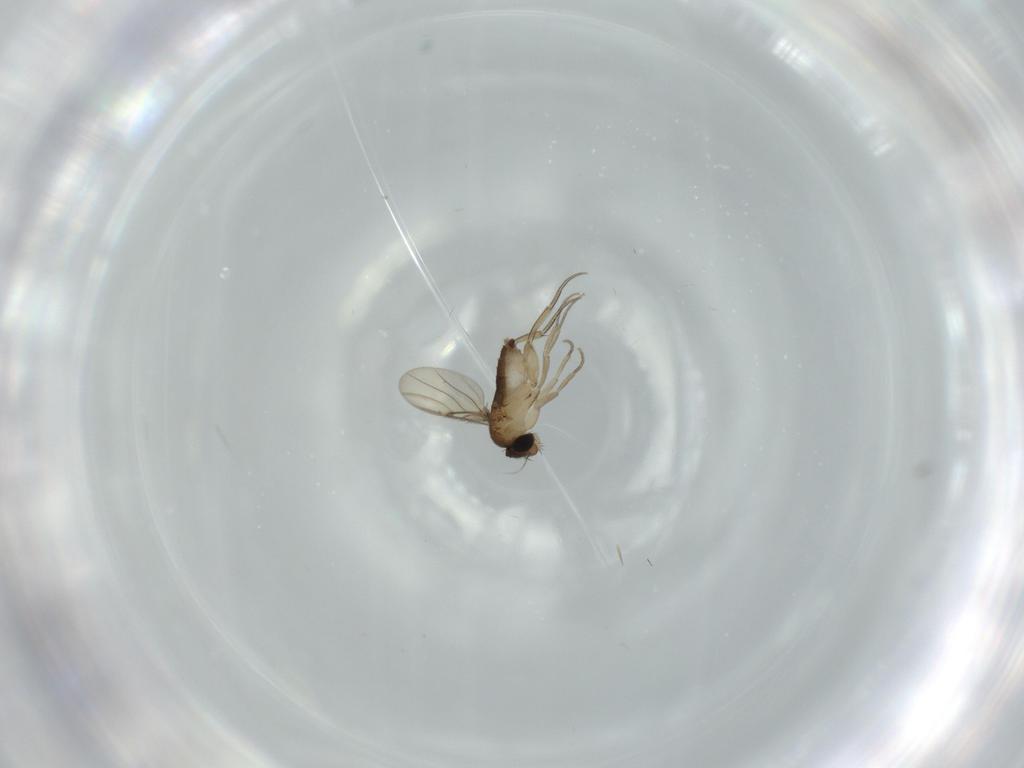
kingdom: Animalia
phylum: Arthropoda
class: Insecta
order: Diptera
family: Phoridae
